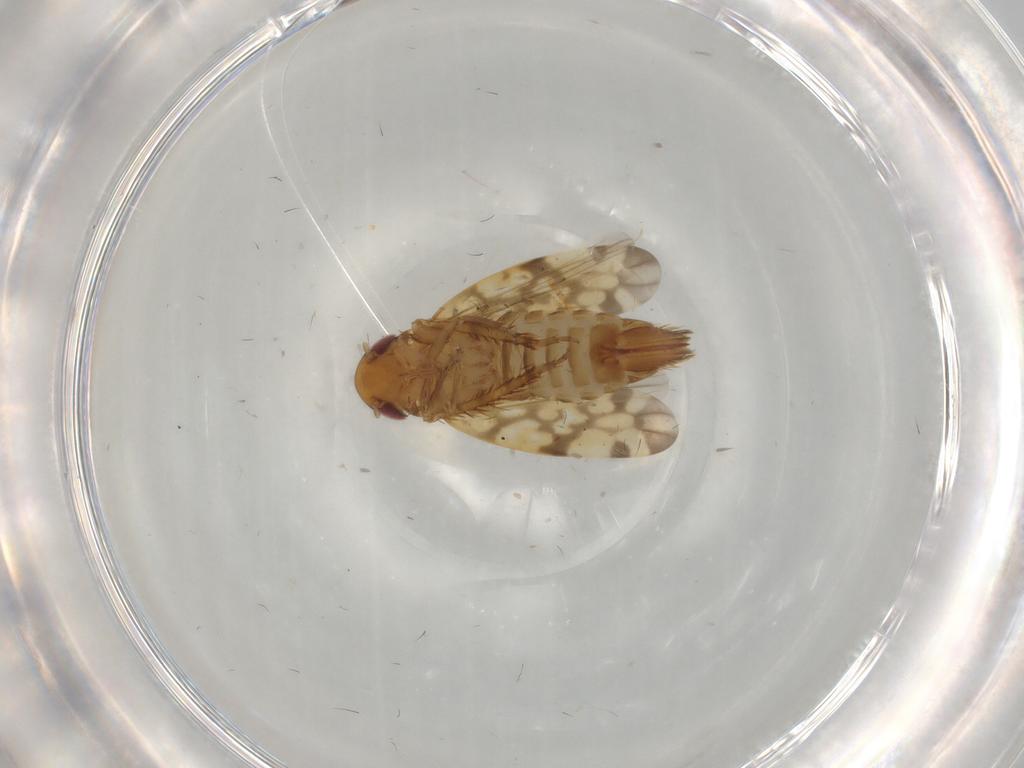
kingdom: Animalia
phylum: Arthropoda
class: Insecta
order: Hemiptera
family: Cicadellidae
